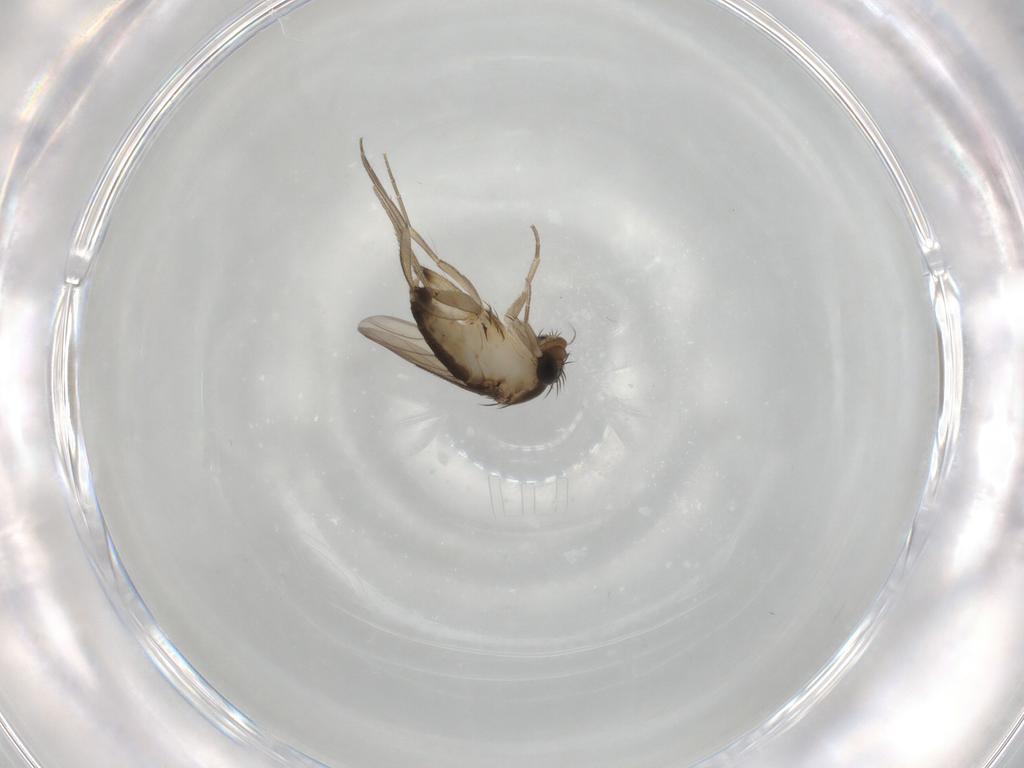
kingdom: Animalia
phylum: Arthropoda
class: Insecta
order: Diptera
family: Phoridae
